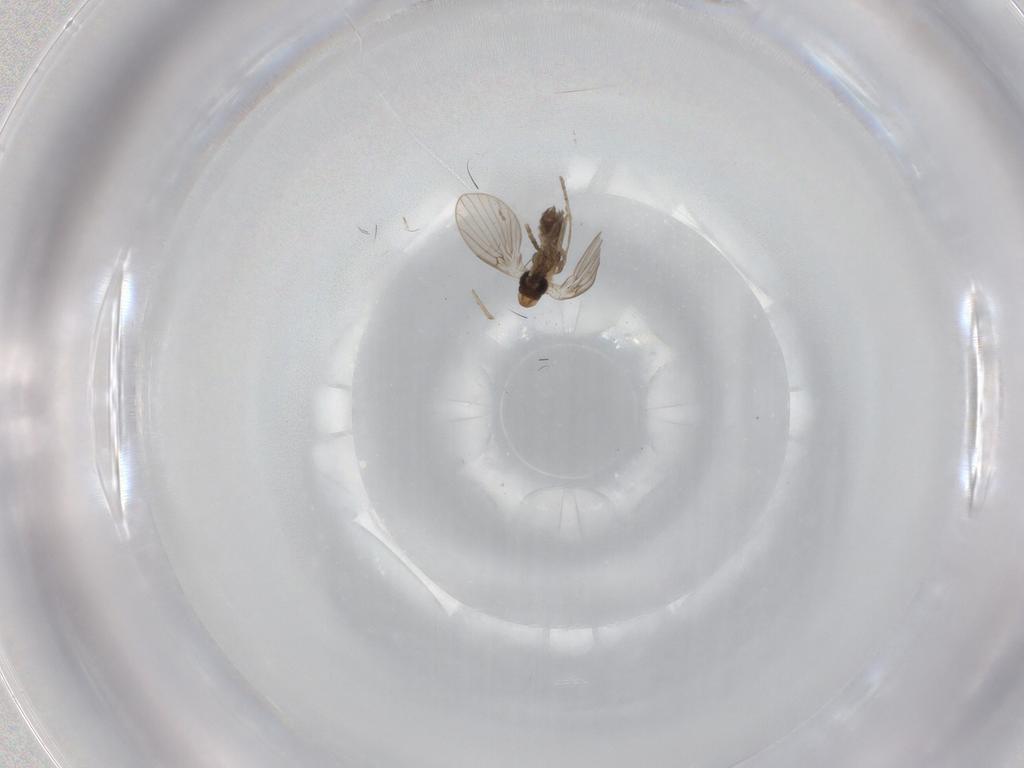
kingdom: Animalia
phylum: Arthropoda
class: Insecta
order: Diptera
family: Psychodidae
